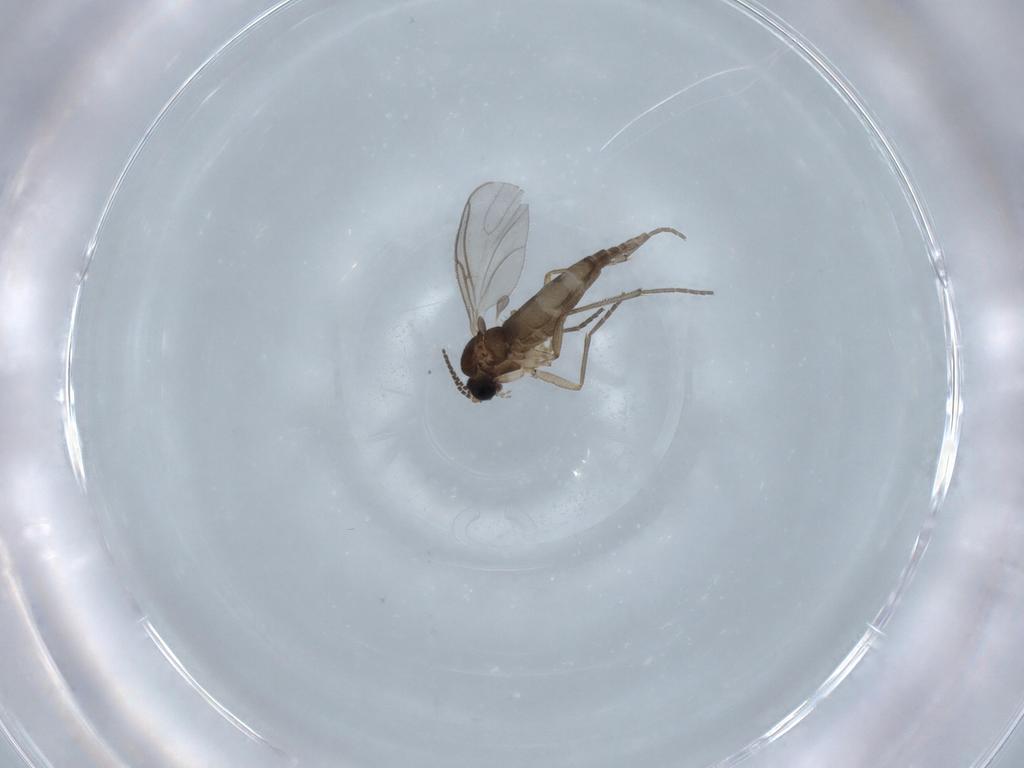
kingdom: Animalia
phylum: Arthropoda
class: Insecta
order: Diptera
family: Sciaridae
